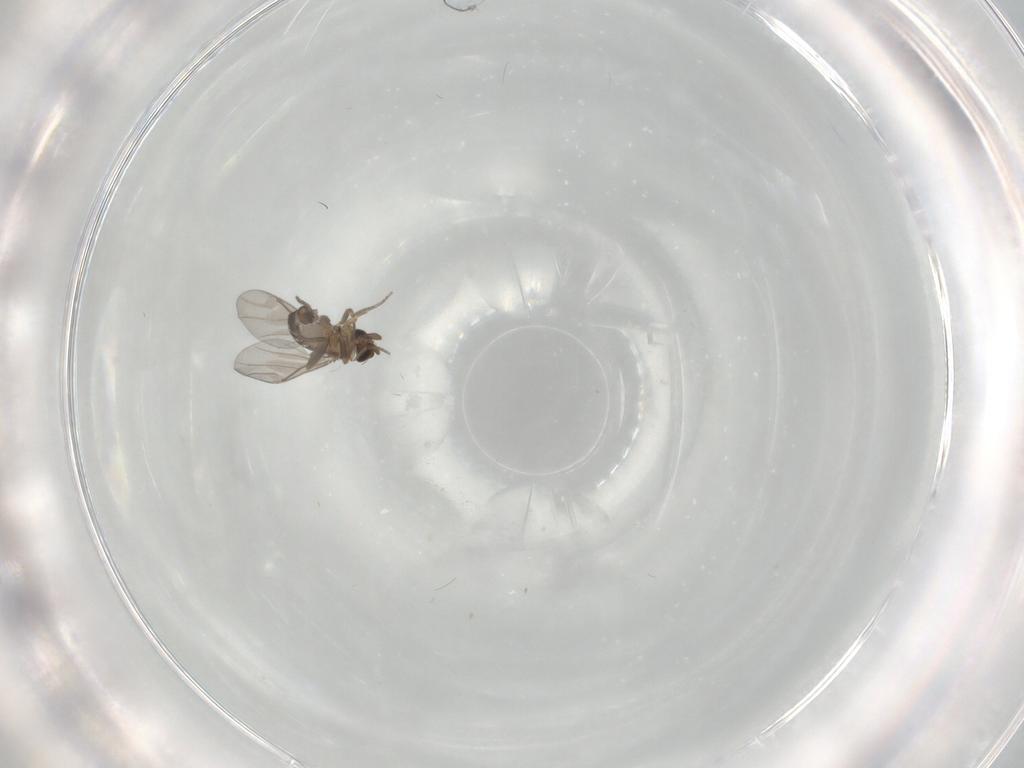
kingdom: Animalia
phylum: Arthropoda
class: Insecta
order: Diptera
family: Phoridae
